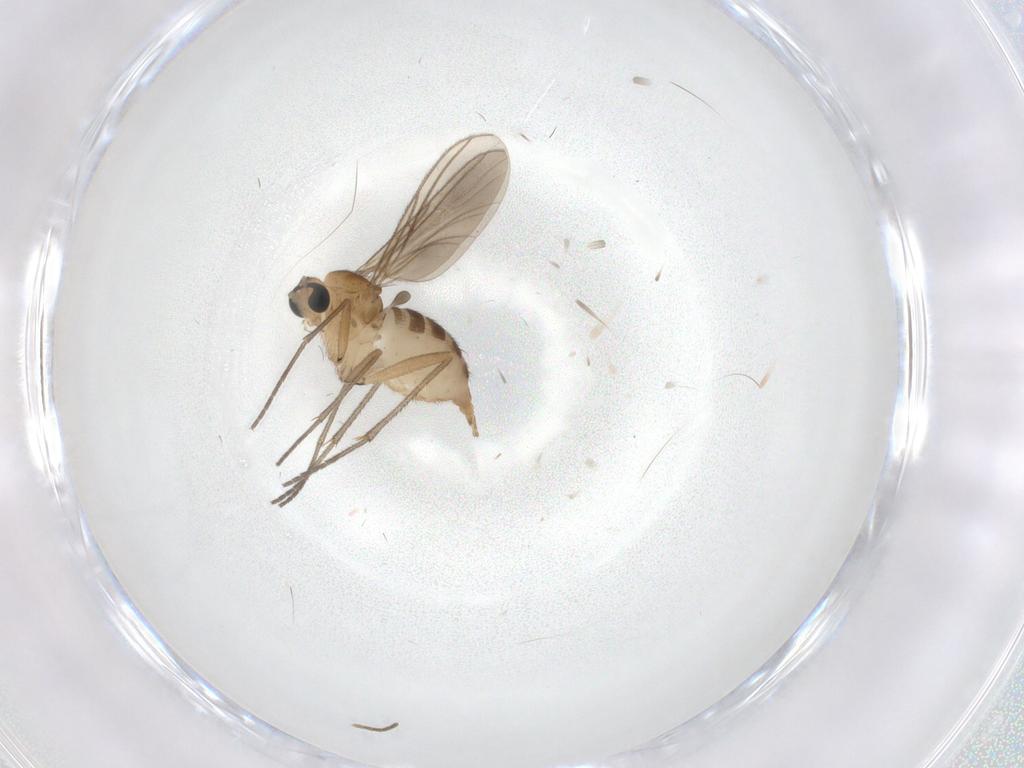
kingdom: Animalia
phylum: Arthropoda
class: Insecta
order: Diptera
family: Sciaridae
